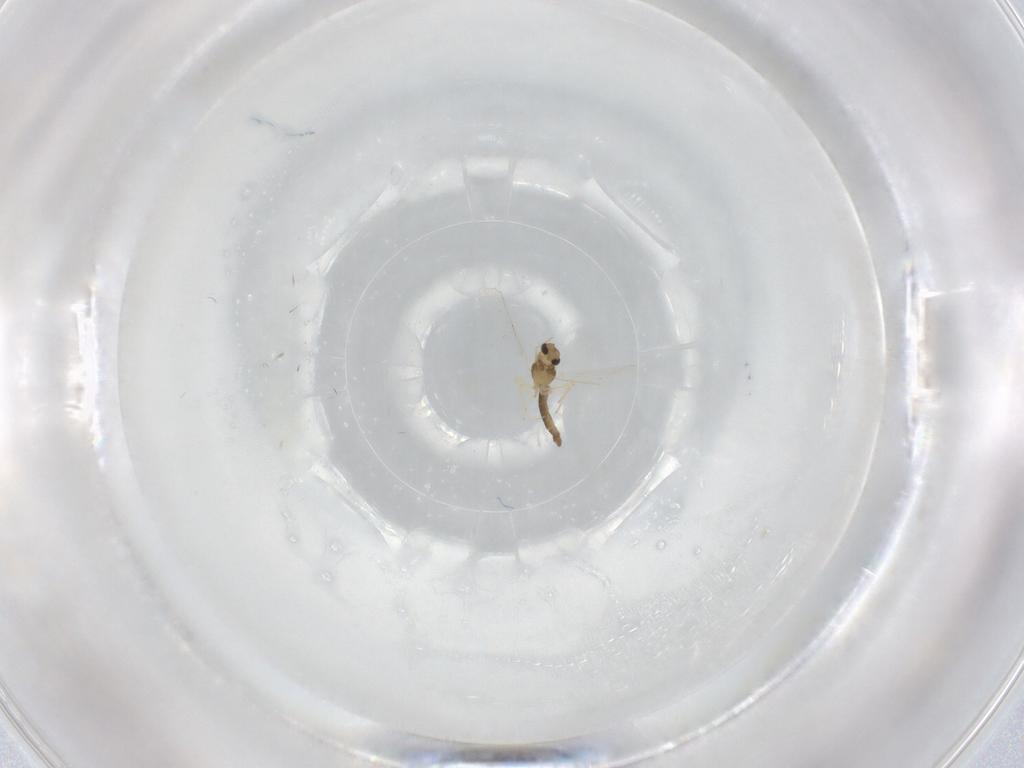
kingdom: Animalia
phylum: Arthropoda
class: Insecta
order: Diptera
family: Chironomidae
